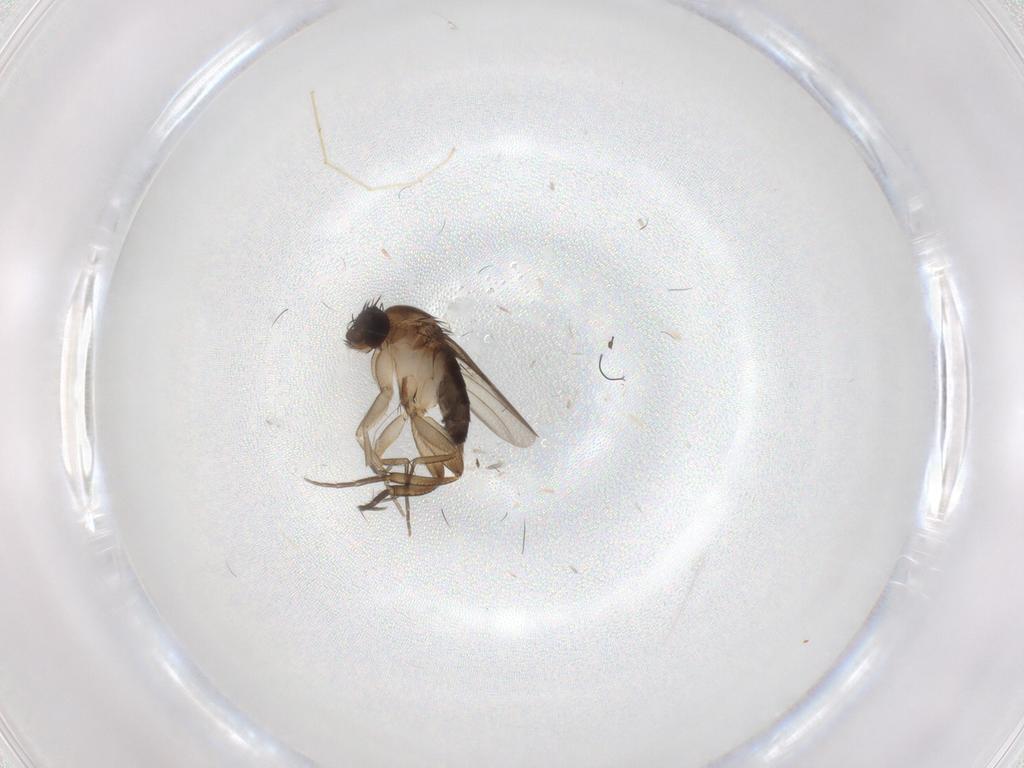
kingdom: Animalia
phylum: Arthropoda
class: Insecta
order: Diptera
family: Phoridae
